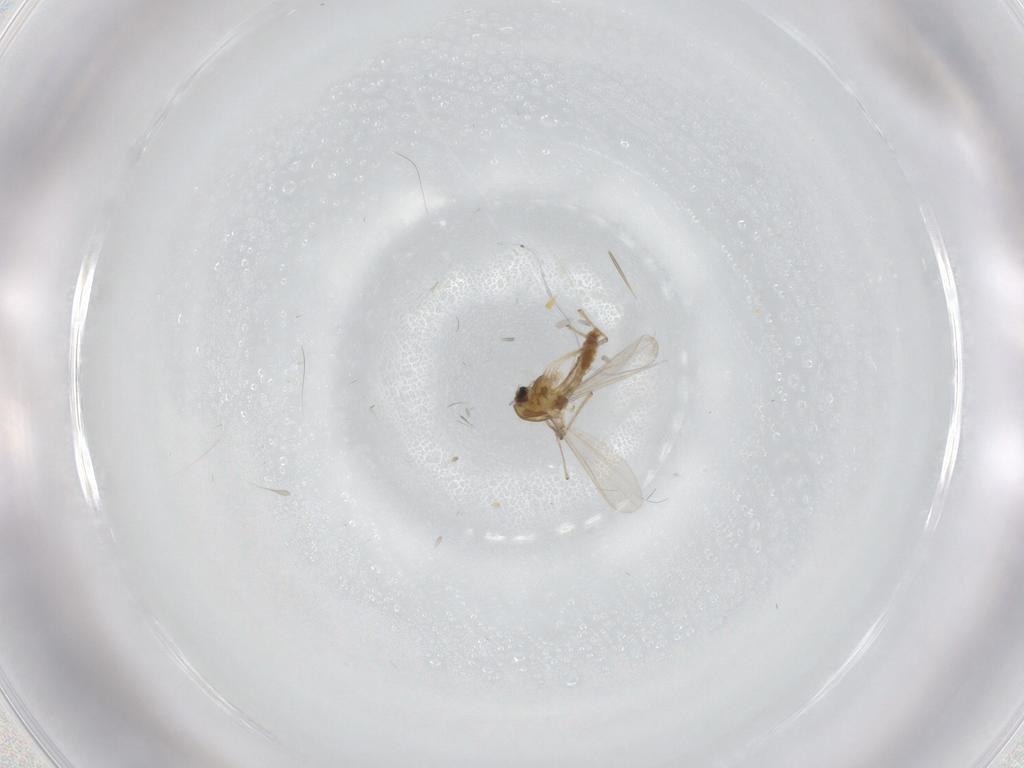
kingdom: Animalia
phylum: Arthropoda
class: Insecta
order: Diptera
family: Chironomidae
